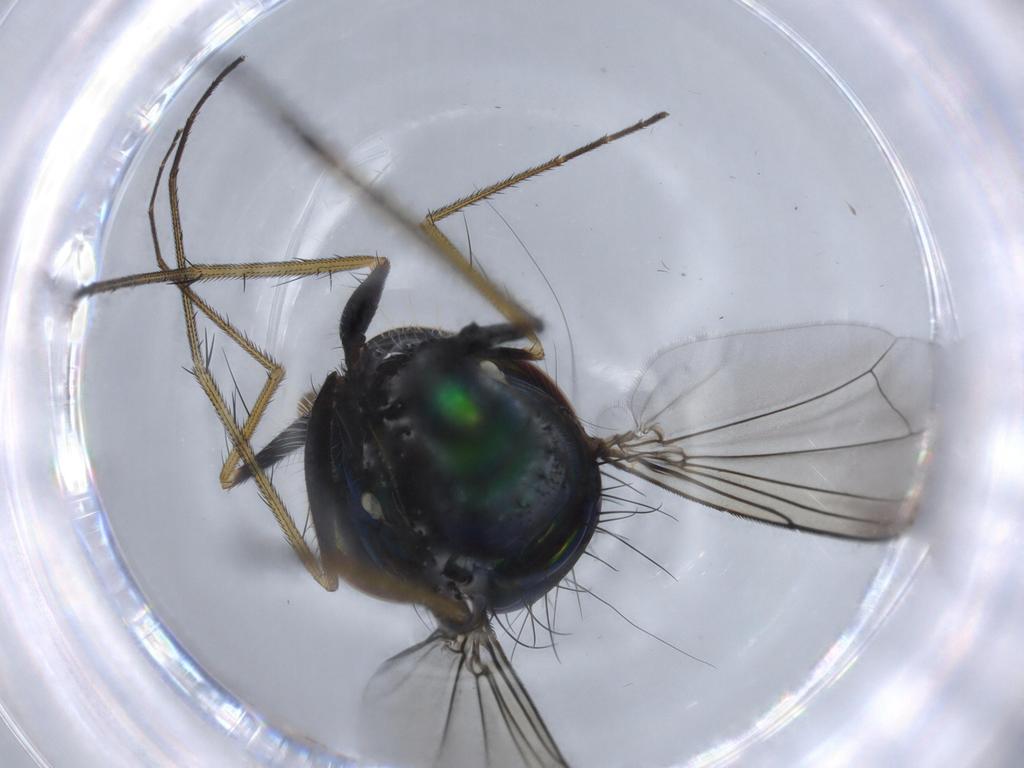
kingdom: Animalia
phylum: Arthropoda
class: Insecta
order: Diptera
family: Dolichopodidae
